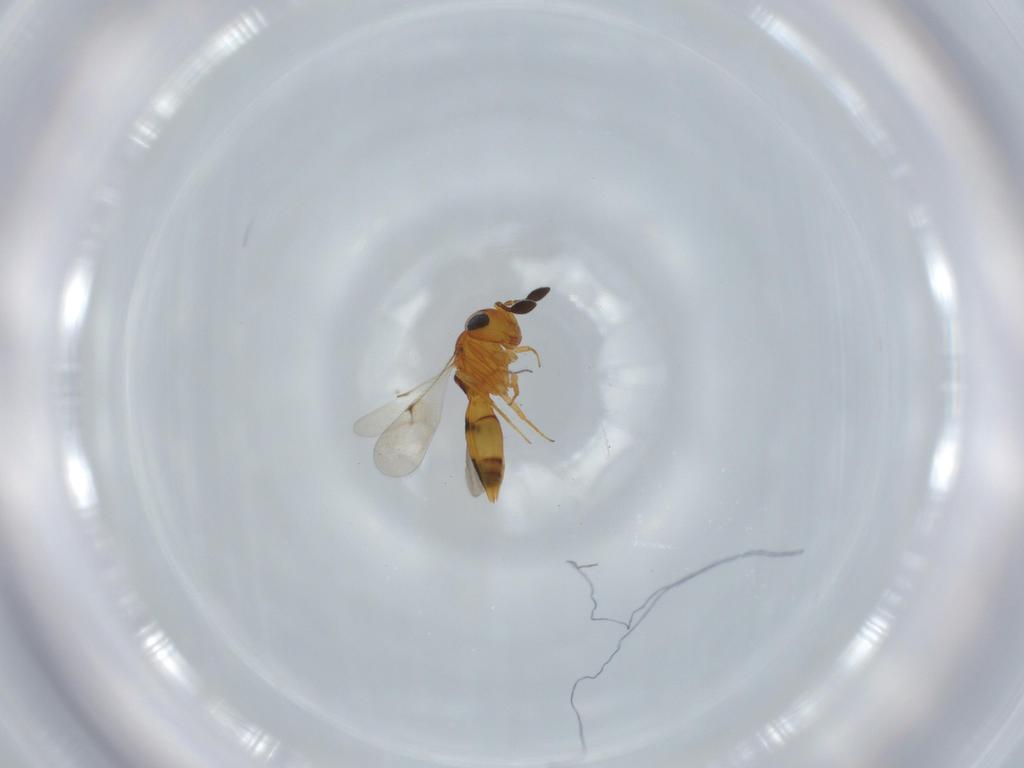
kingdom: Animalia
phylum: Arthropoda
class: Insecta
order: Hymenoptera
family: Scelionidae
